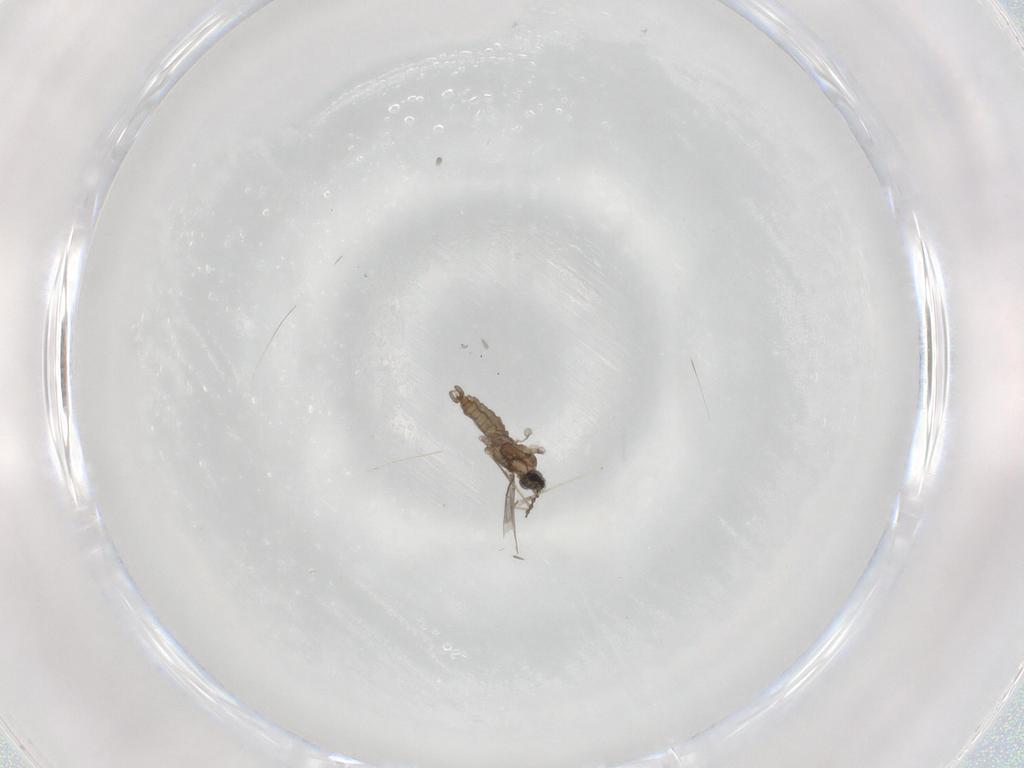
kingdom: Animalia
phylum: Arthropoda
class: Insecta
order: Diptera
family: Cecidomyiidae
